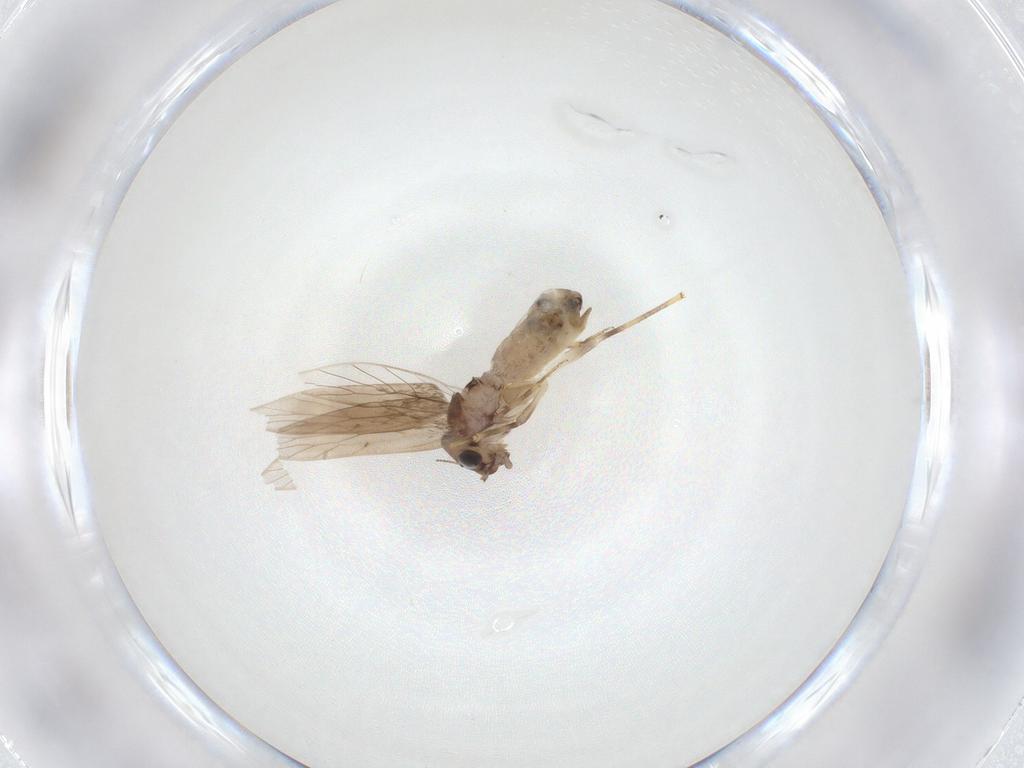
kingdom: Animalia
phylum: Arthropoda
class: Insecta
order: Psocodea
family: Lepidopsocidae
